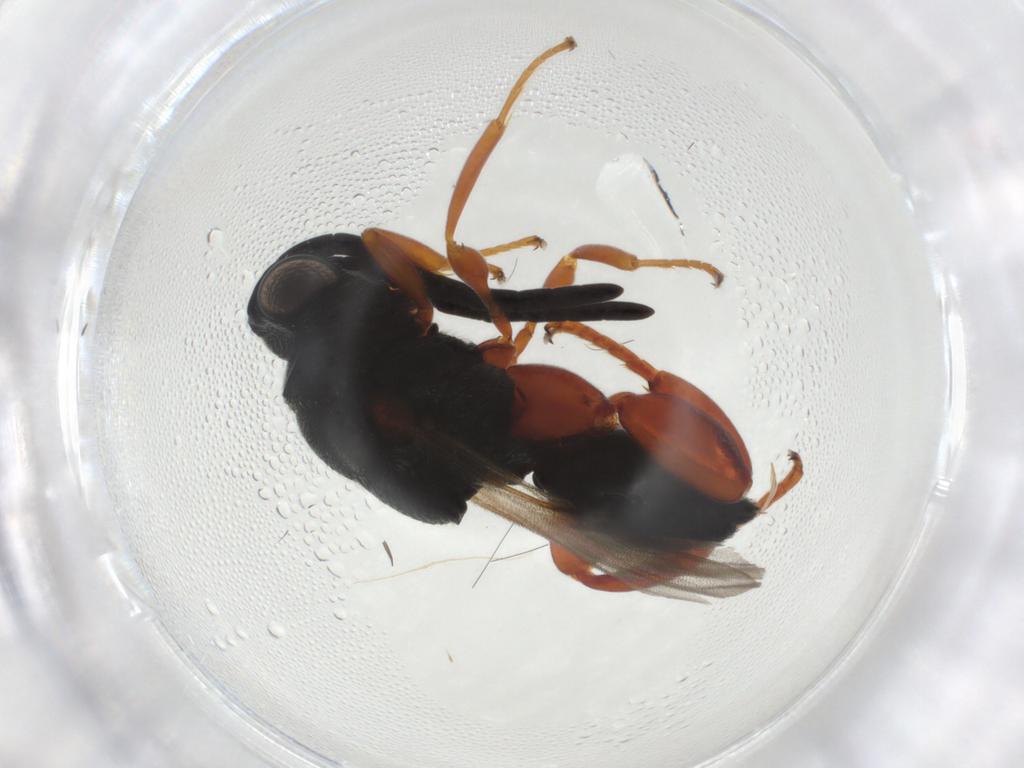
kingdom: Animalia
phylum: Arthropoda
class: Insecta
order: Hymenoptera
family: Chalcididae
